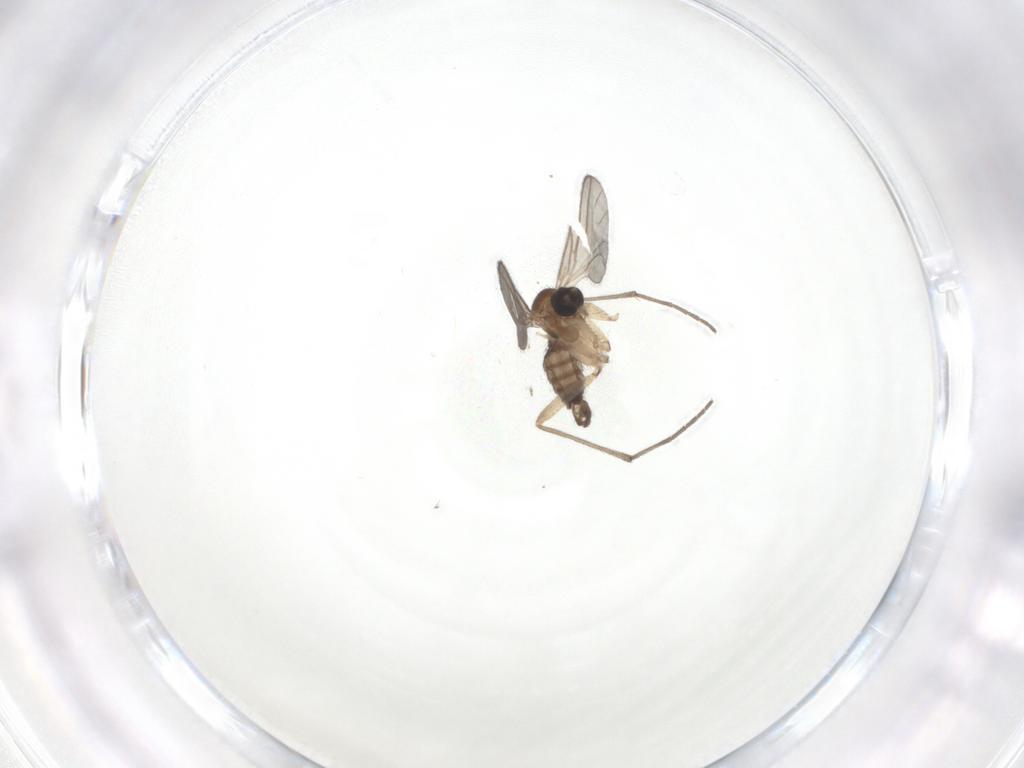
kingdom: Animalia
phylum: Arthropoda
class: Insecta
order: Diptera
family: Sciaridae
